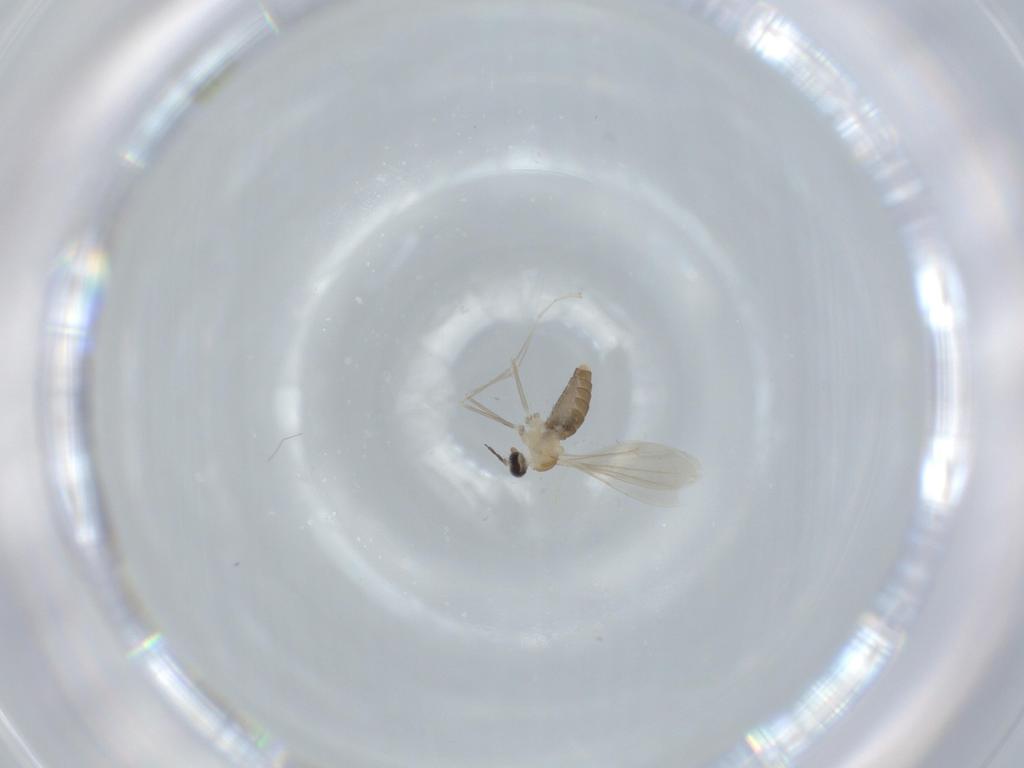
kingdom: Animalia
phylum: Arthropoda
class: Insecta
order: Diptera
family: Cecidomyiidae
